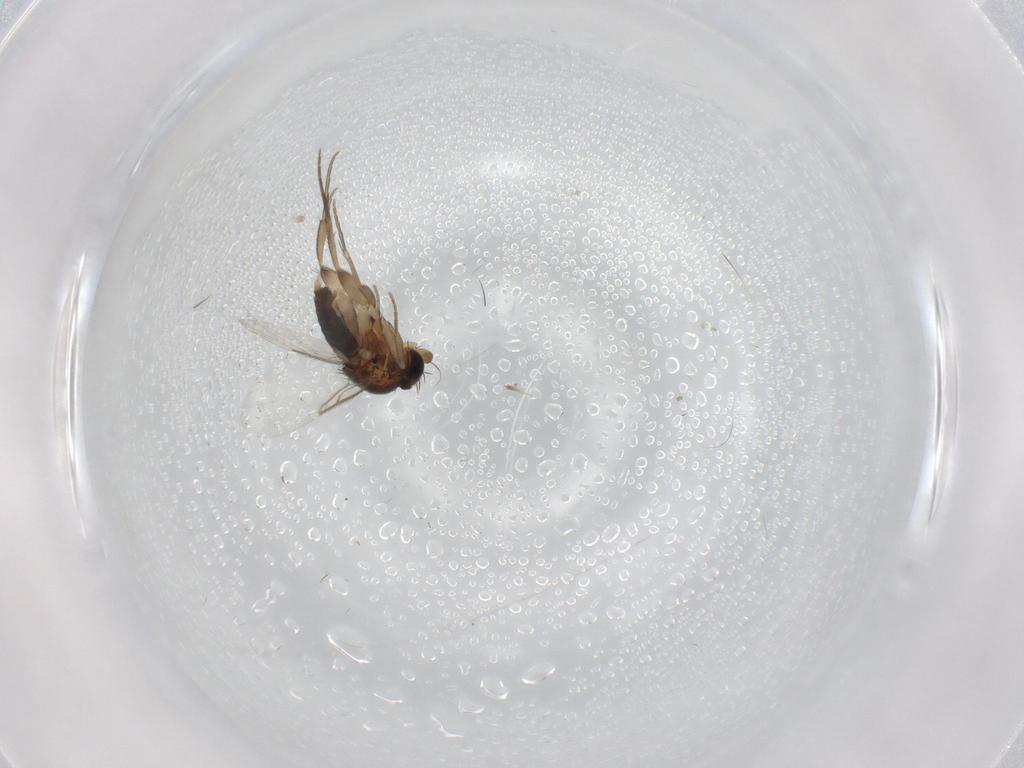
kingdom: Animalia
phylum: Arthropoda
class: Insecta
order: Diptera
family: Phoridae
